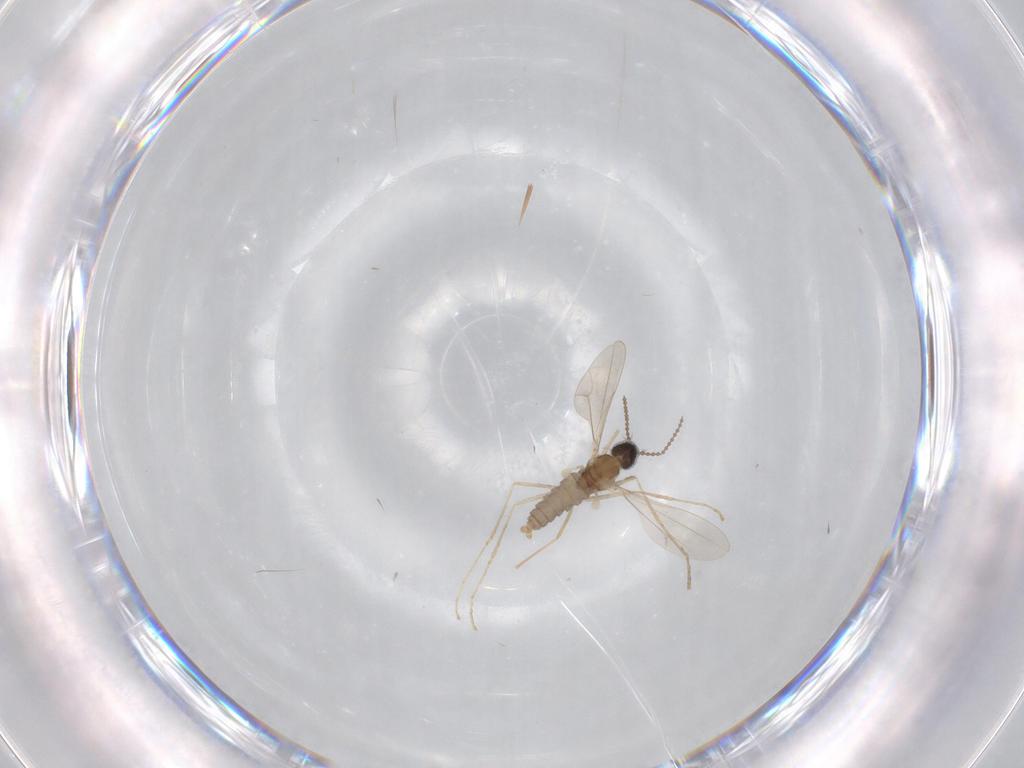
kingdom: Animalia
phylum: Arthropoda
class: Insecta
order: Diptera
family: Cecidomyiidae
